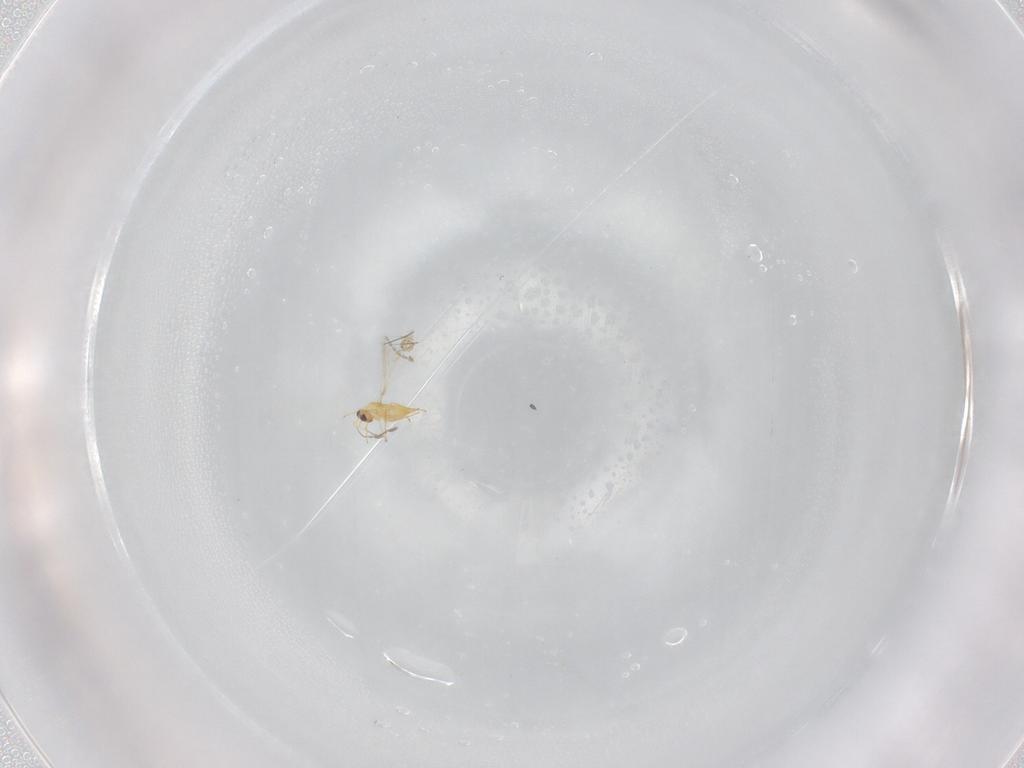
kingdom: Animalia
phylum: Arthropoda
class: Insecta
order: Hymenoptera
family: Mymaridae
